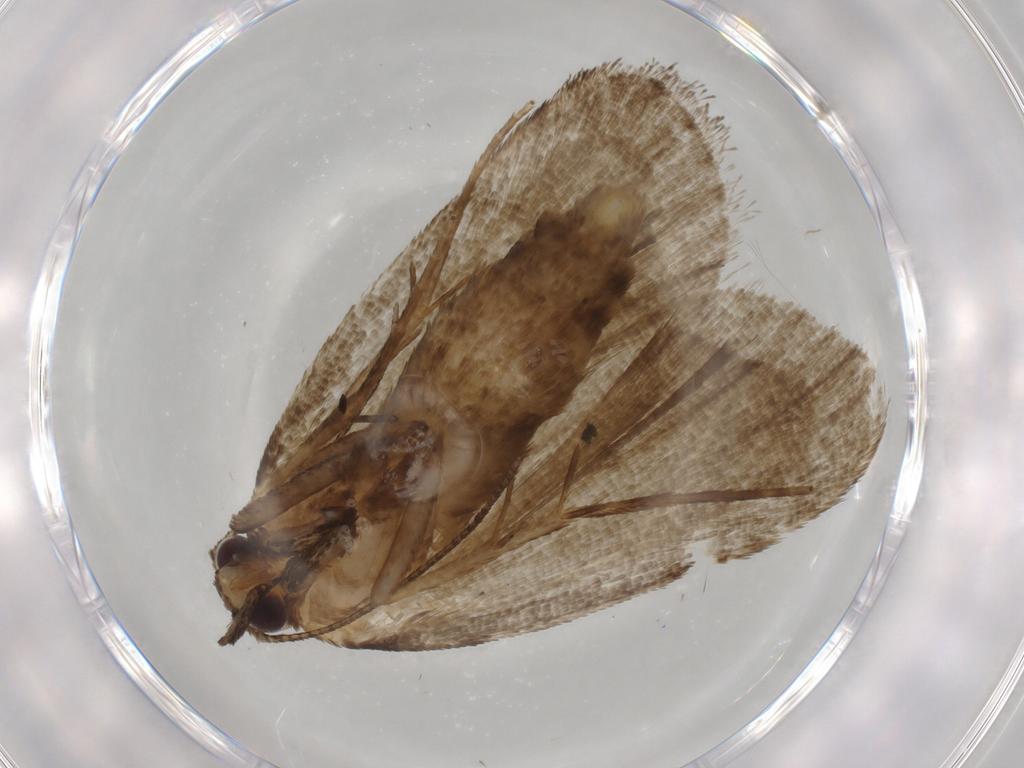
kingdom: Animalia
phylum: Arthropoda
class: Insecta
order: Lepidoptera
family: Erebidae
